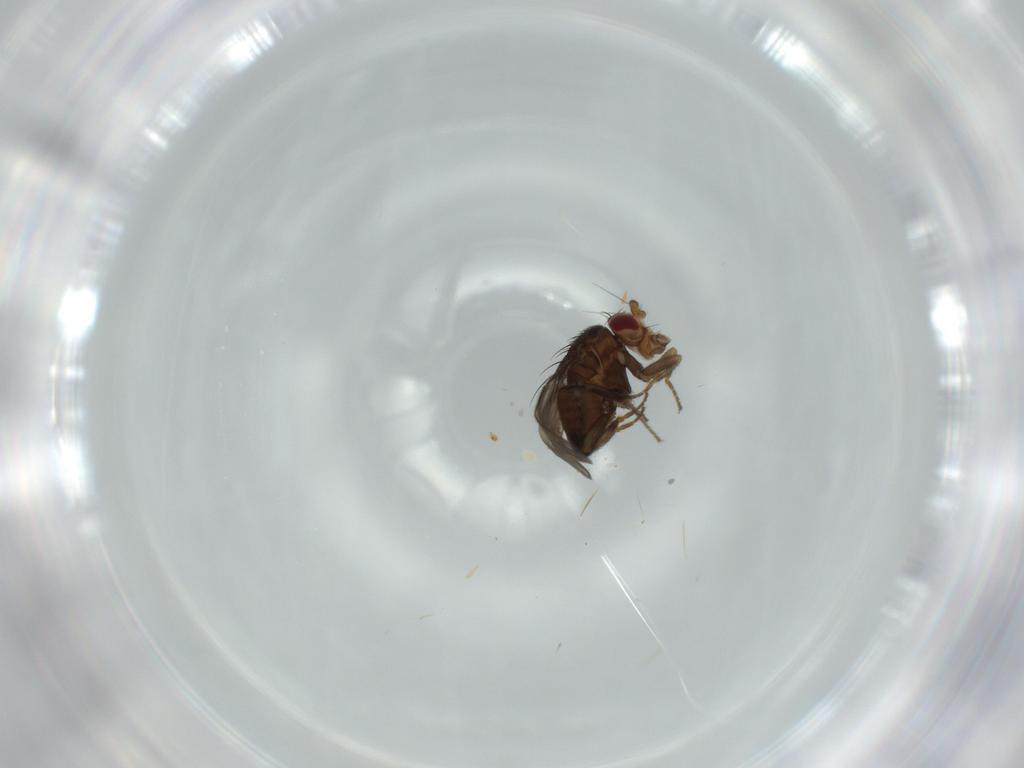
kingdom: Animalia
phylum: Arthropoda
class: Insecta
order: Diptera
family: Chironomidae
